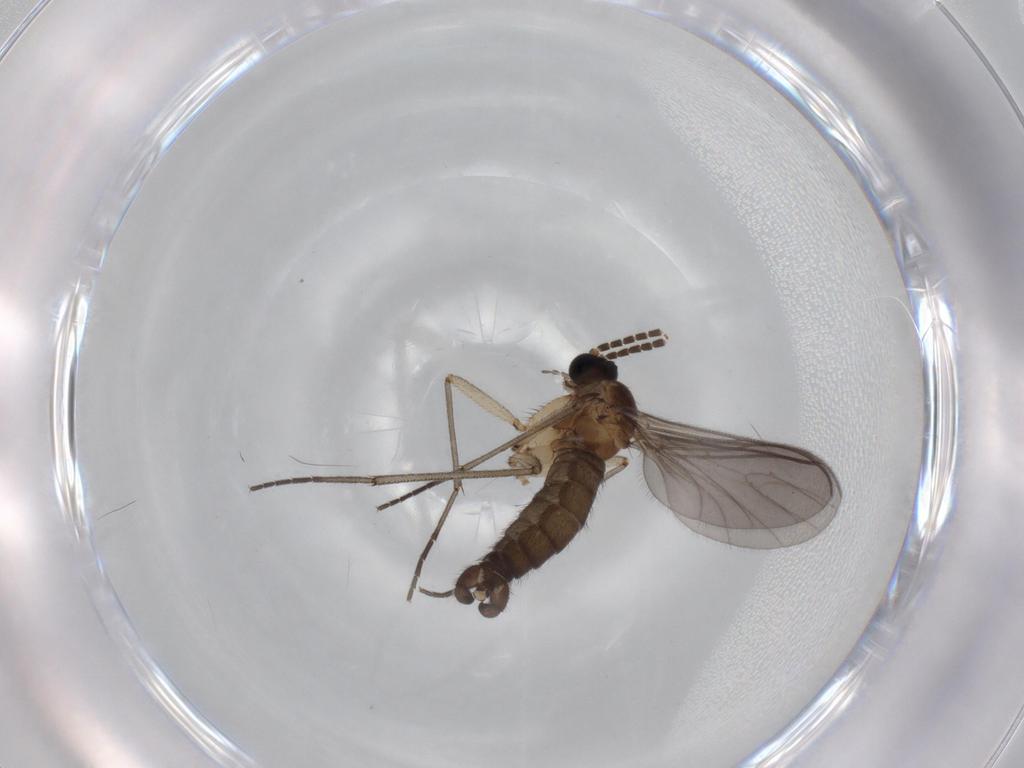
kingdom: Animalia
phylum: Arthropoda
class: Insecta
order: Diptera
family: Sciaridae
